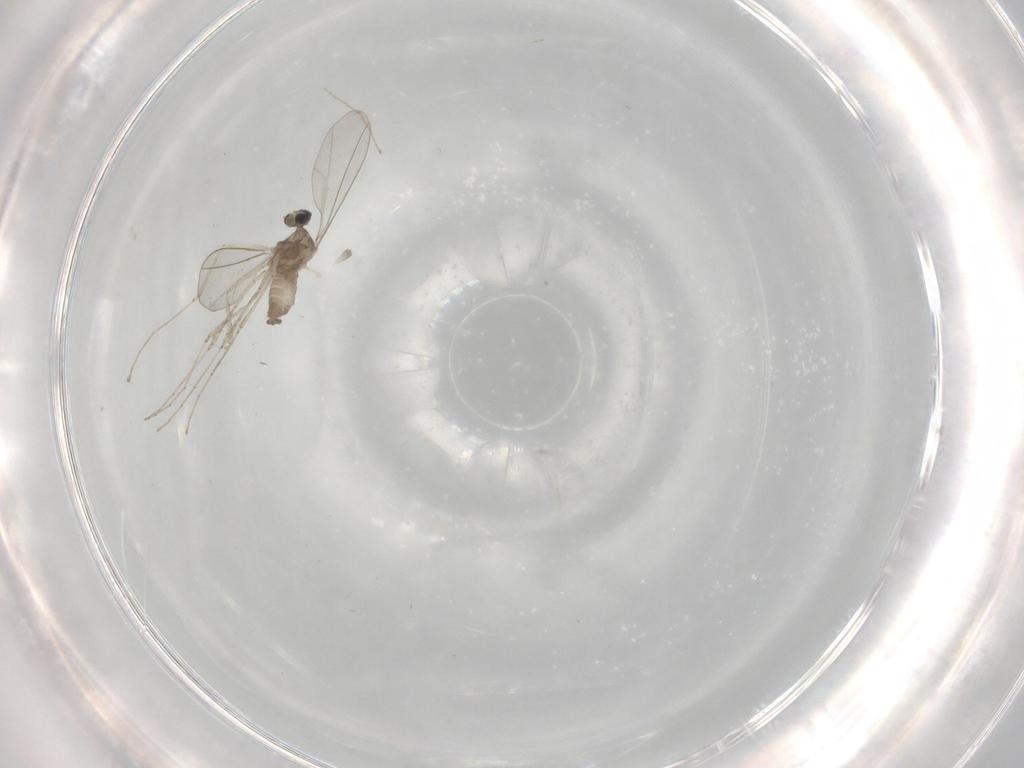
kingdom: Animalia
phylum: Arthropoda
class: Insecta
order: Diptera
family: Cecidomyiidae
